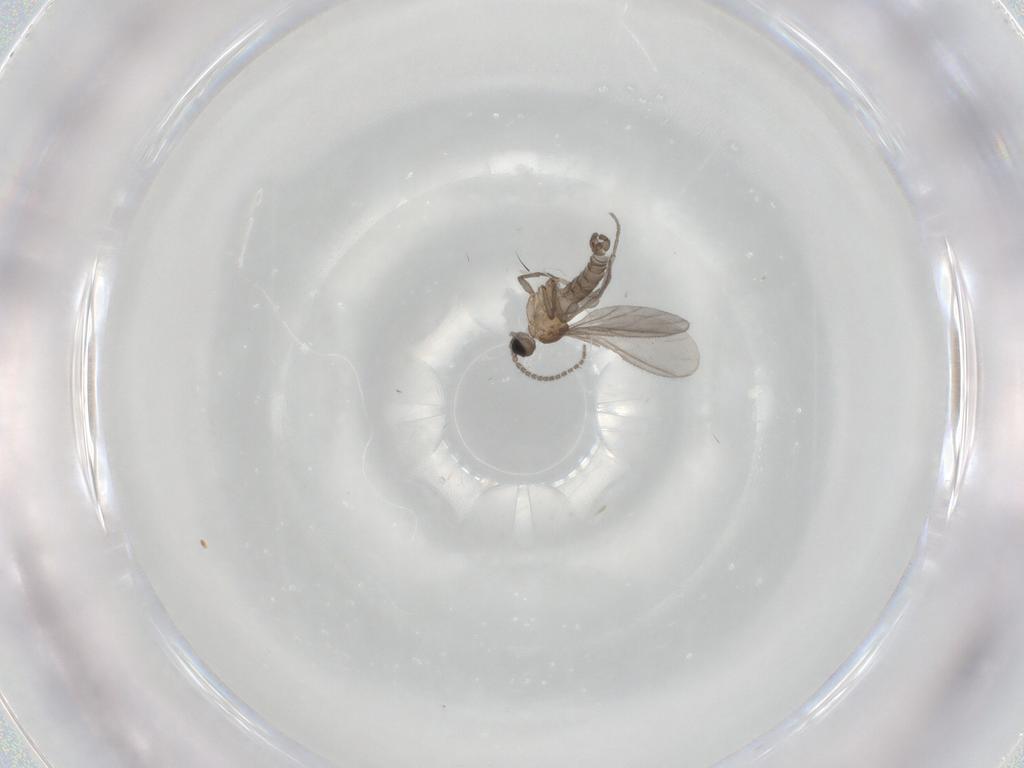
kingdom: Animalia
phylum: Arthropoda
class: Insecta
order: Diptera
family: Sciaridae
